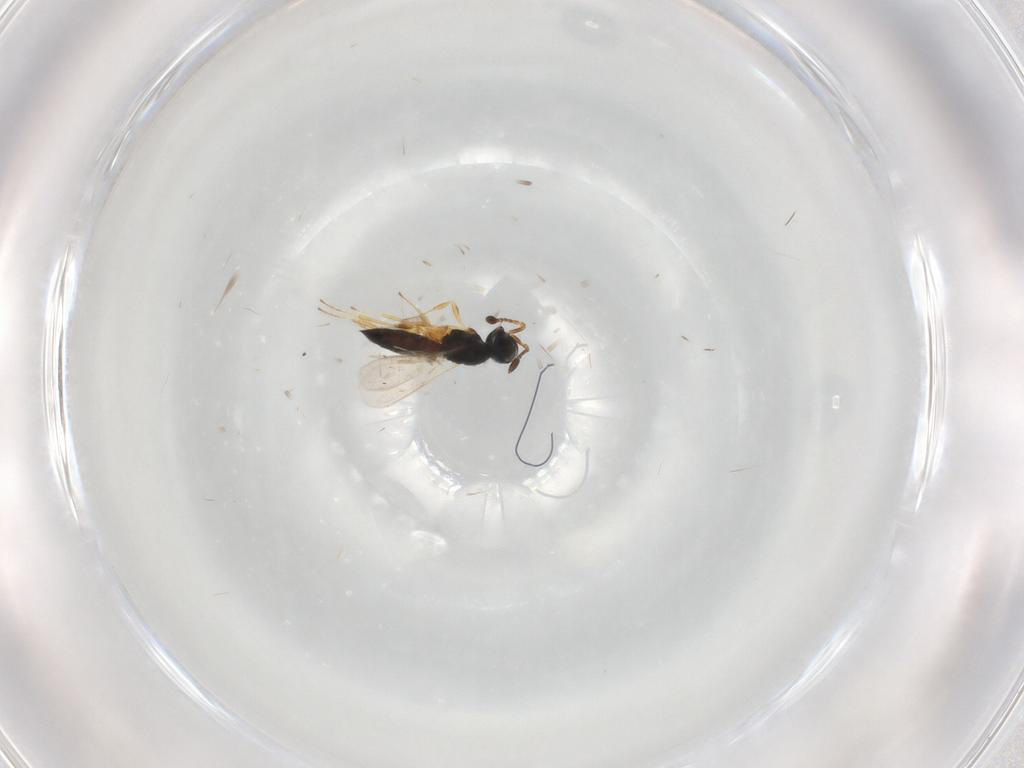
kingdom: Animalia
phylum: Arthropoda
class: Insecta
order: Hymenoptera
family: Scelionidae
